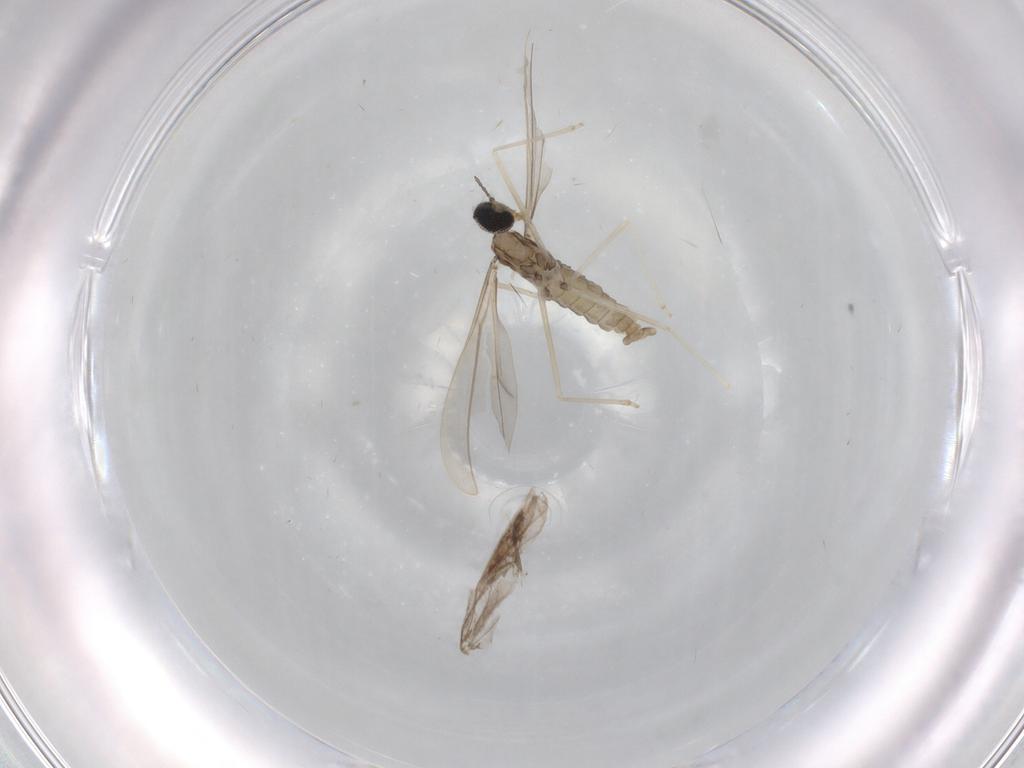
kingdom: Animalia
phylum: Arthropoda
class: Insecta
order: Diptera
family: Cecidomyiidae
